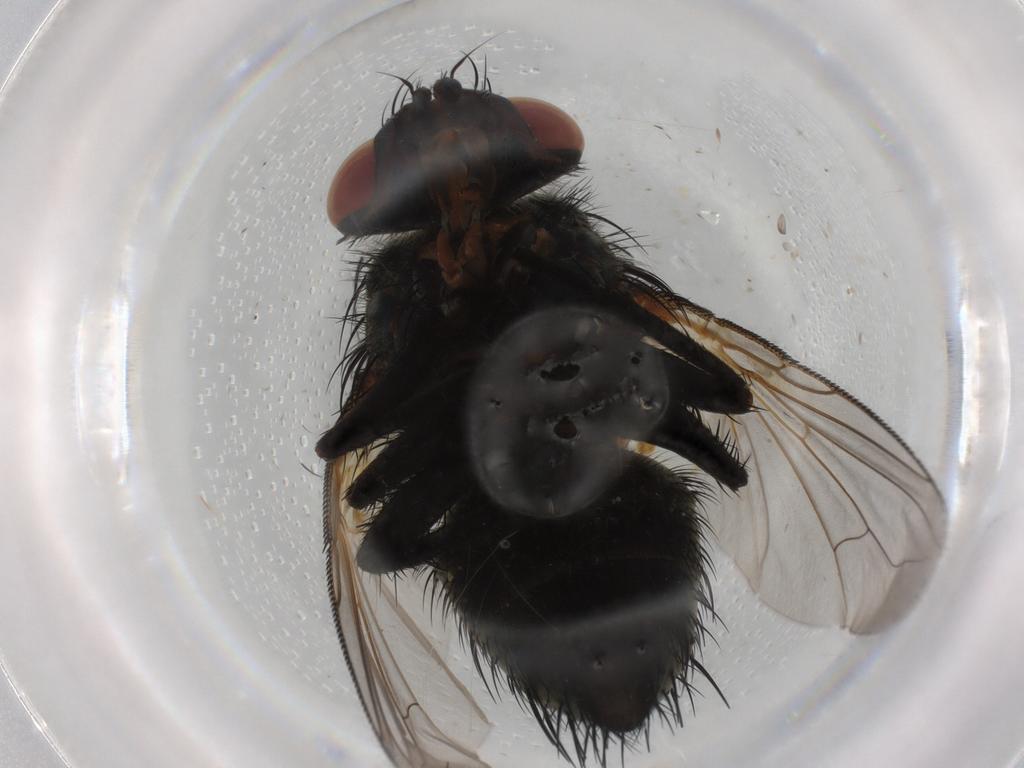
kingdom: Animalia
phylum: Arthropoda
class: Insecta
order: Diptera
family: Tachinidae
